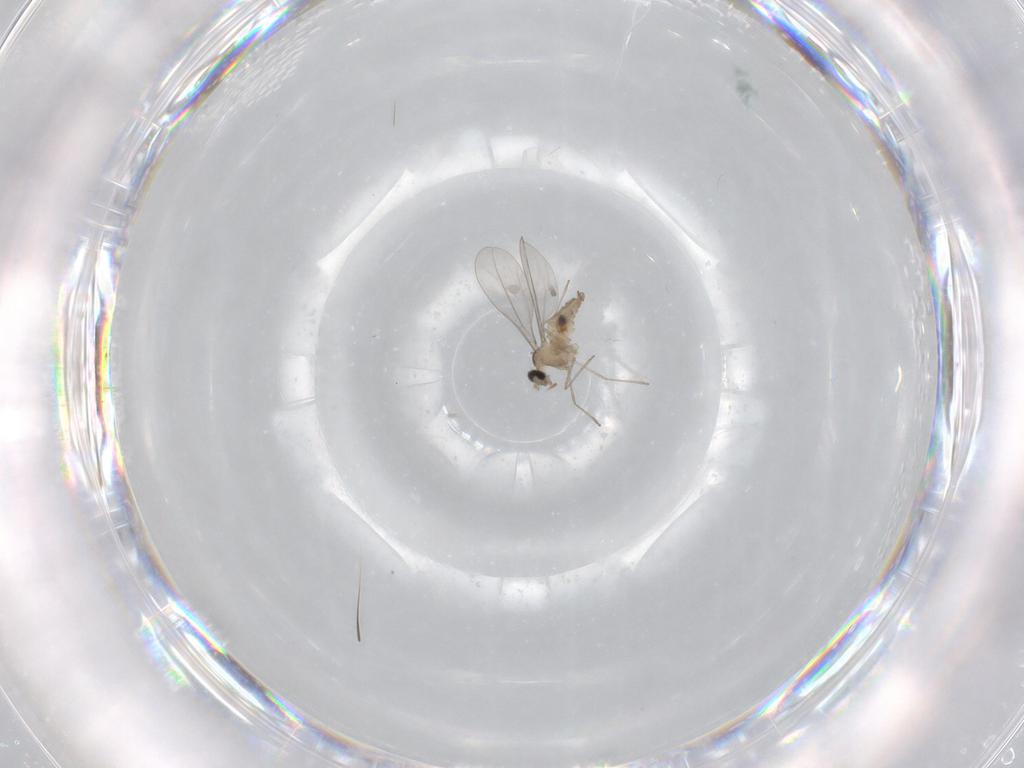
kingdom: Animalia
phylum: Arthropoda
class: Insecta
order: Diptera
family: Cecidomyiidae
